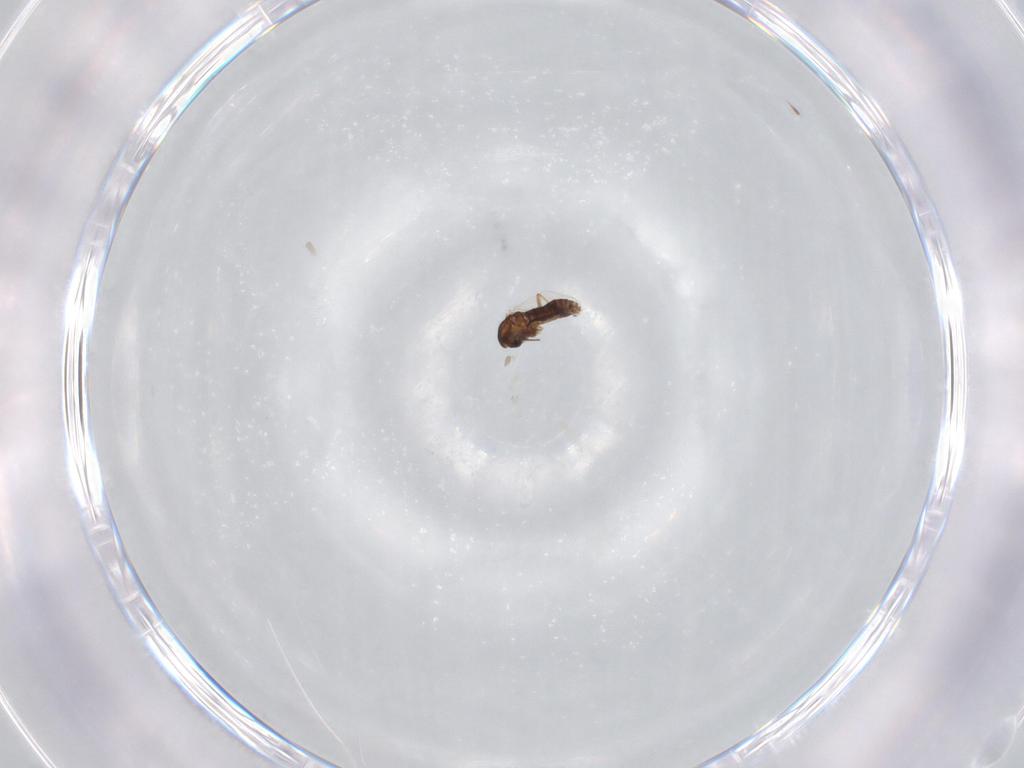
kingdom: Animalia
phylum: Arthropoda
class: Insecta
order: Diptera
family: Chironomidae
